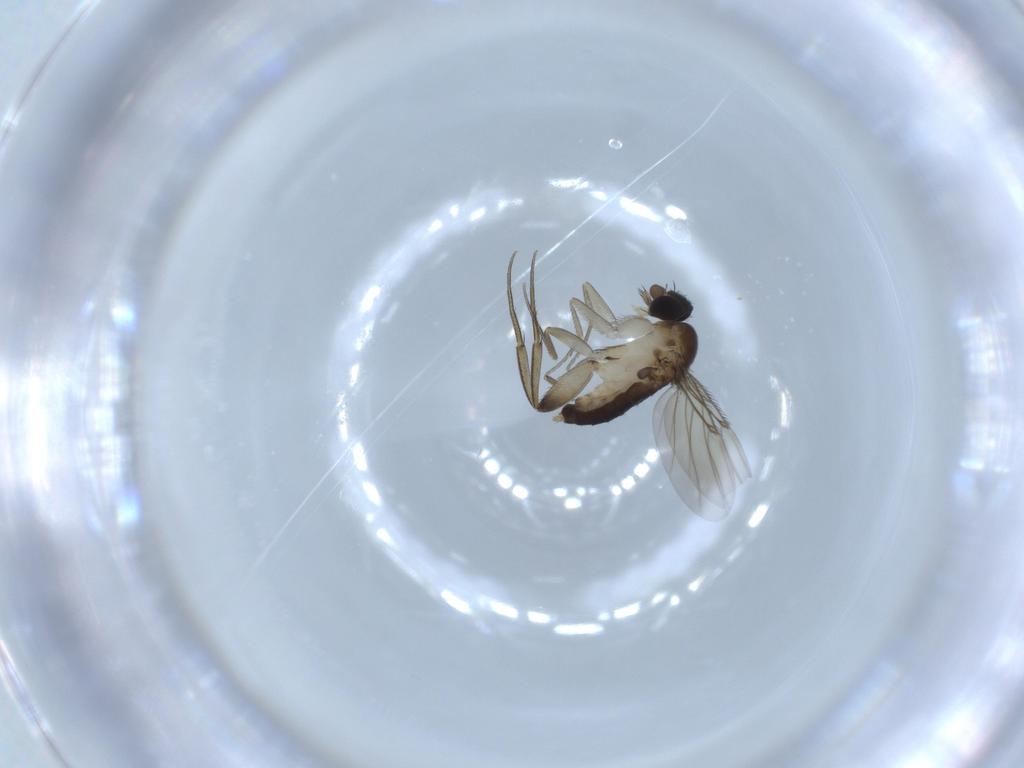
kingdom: Animalia
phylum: Arthropoda
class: Insecta
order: Diptera
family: Phoridae
